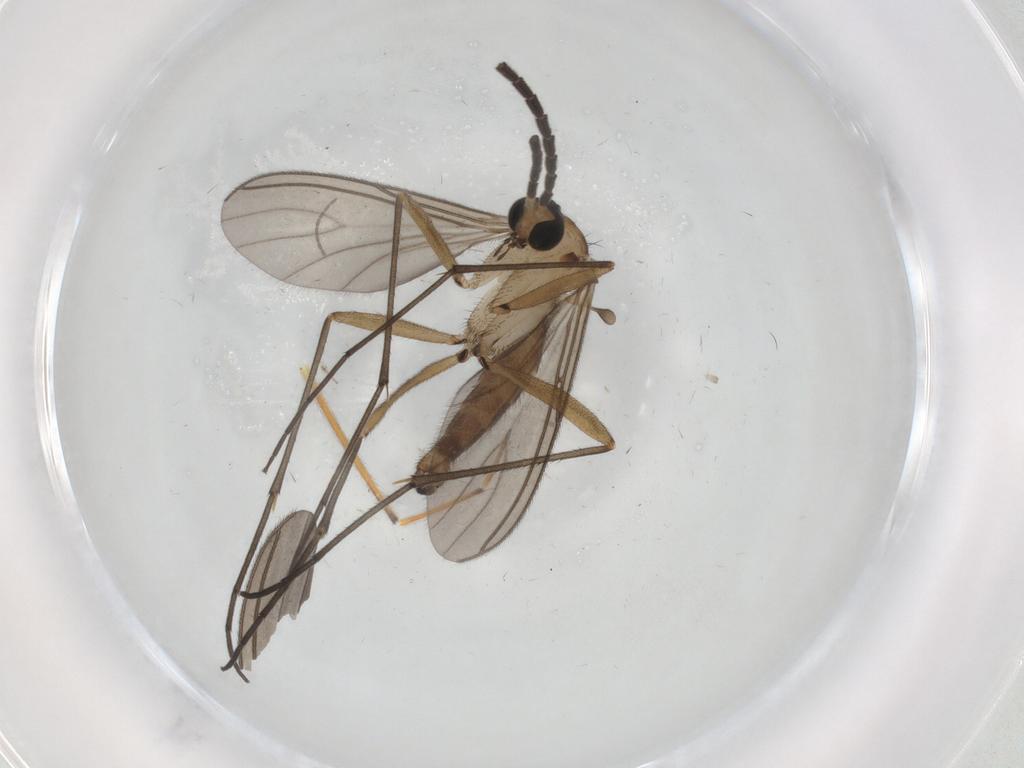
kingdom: Animalia
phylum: Arthropoda
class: Insecta
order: Diptera
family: Sciaridae
